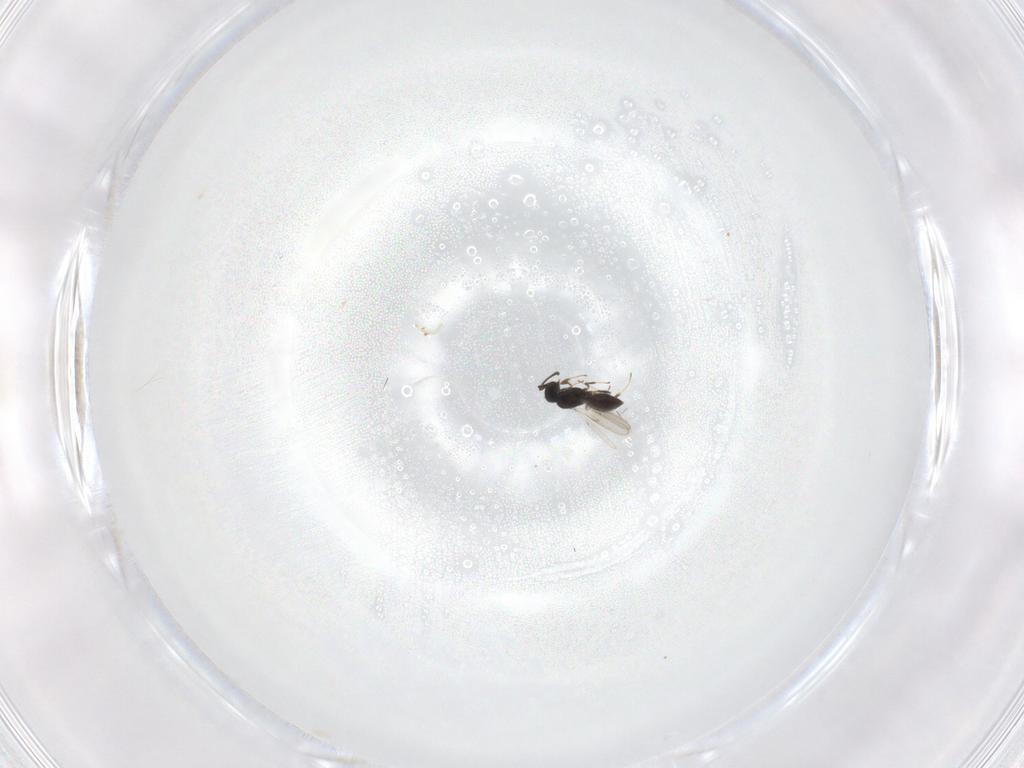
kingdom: Animalia
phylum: Arthropoda
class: Insecta
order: Hymenoptera
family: Scelionidae
